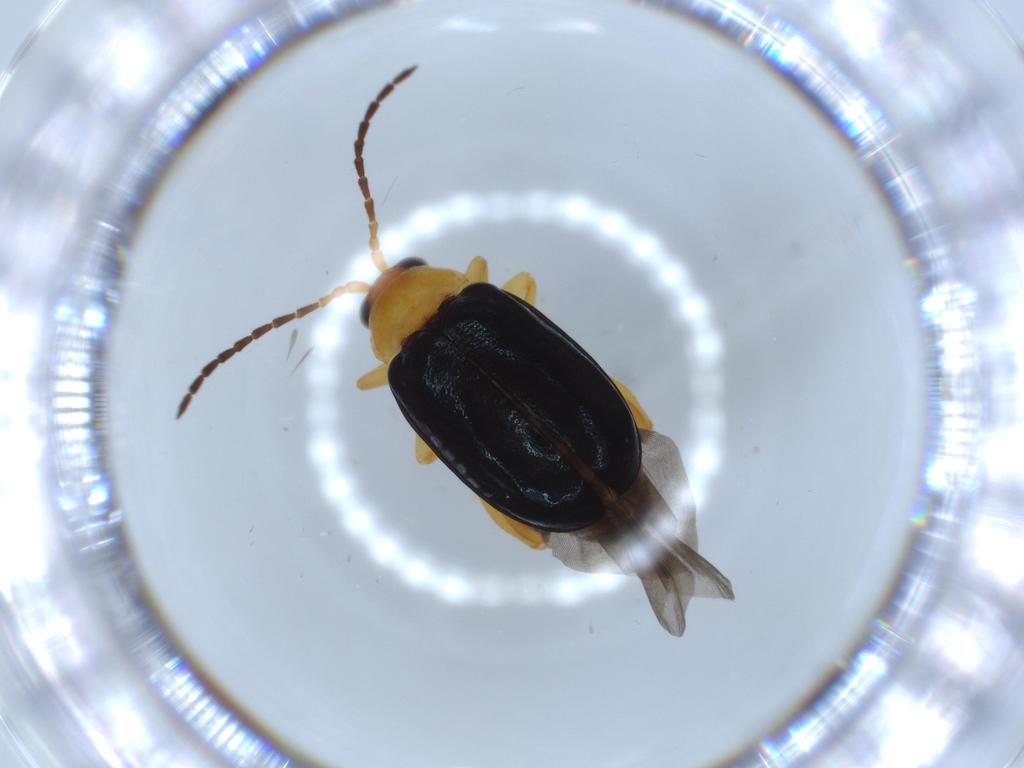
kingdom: Animalia
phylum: Arthropoda
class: Insecta
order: Coleoptera
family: Chrysomelidae
